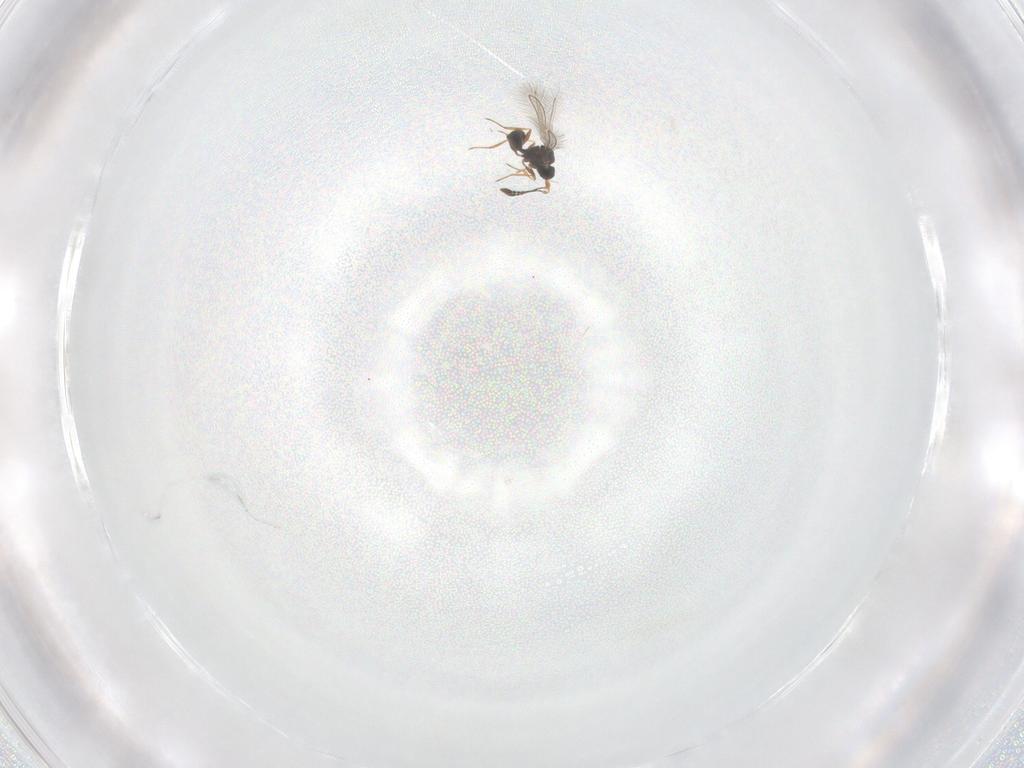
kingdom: Animalia
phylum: Arthropoda
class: Insecta
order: Hymenoptera
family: Mymaridae
